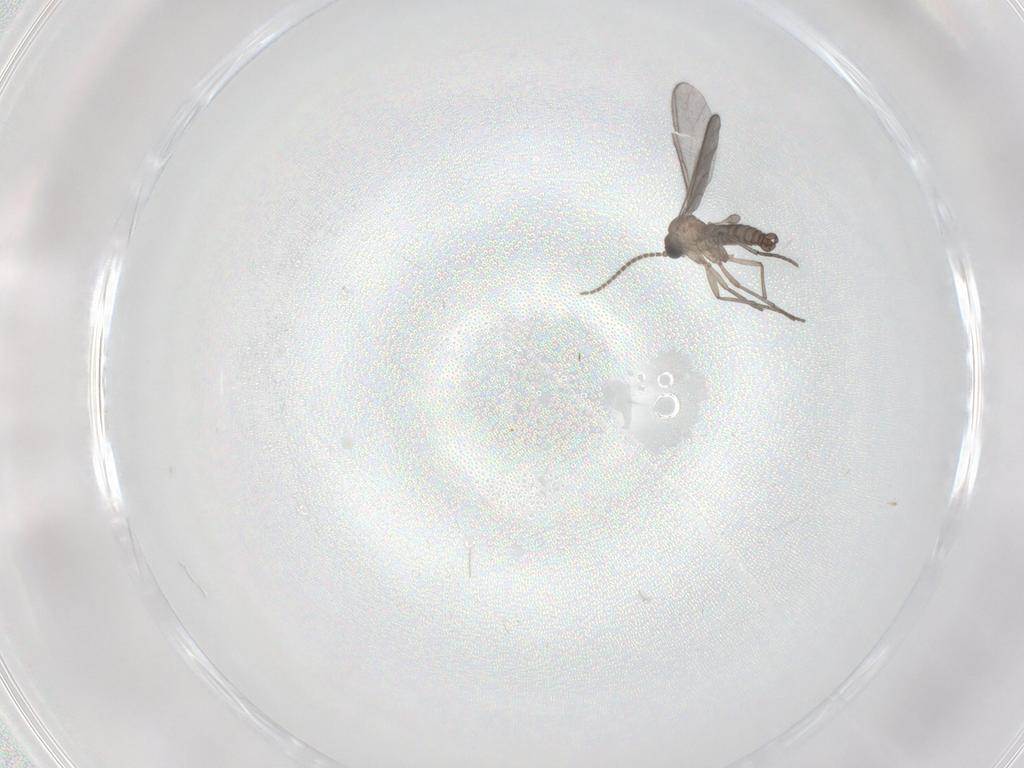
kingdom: Animalia
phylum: Arthropoda
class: Insecta
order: Diptera
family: Sciaridae
